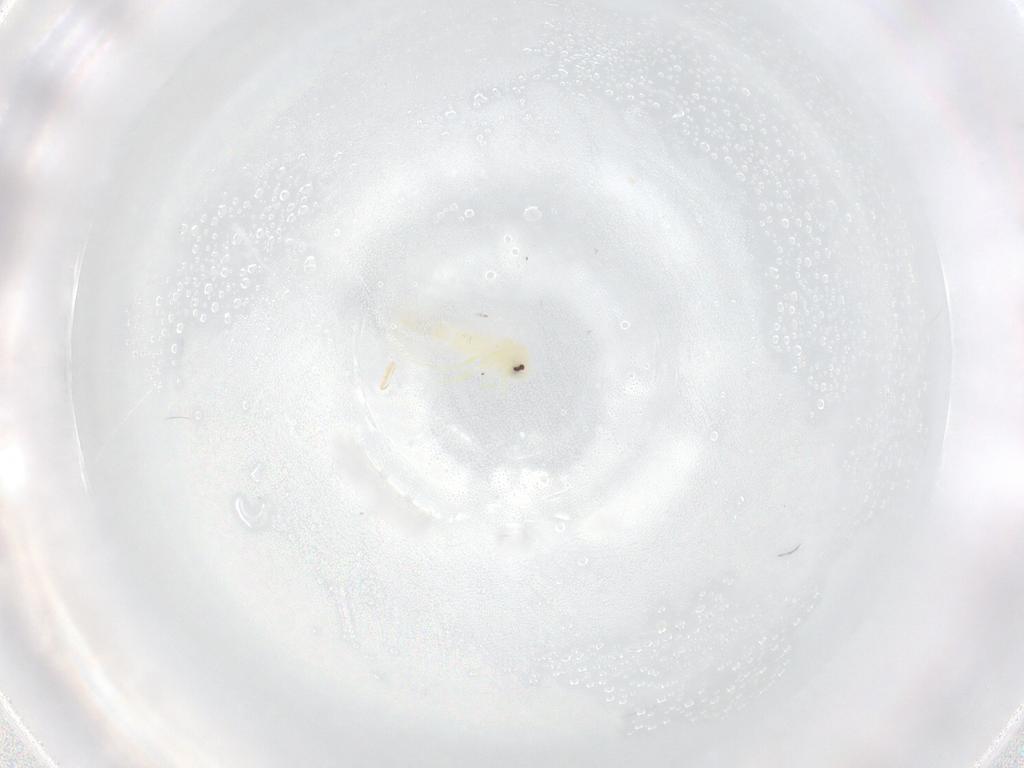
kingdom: Animalia
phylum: Arthropoda
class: Insecta
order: Hemiptera
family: Aleyrodidae
